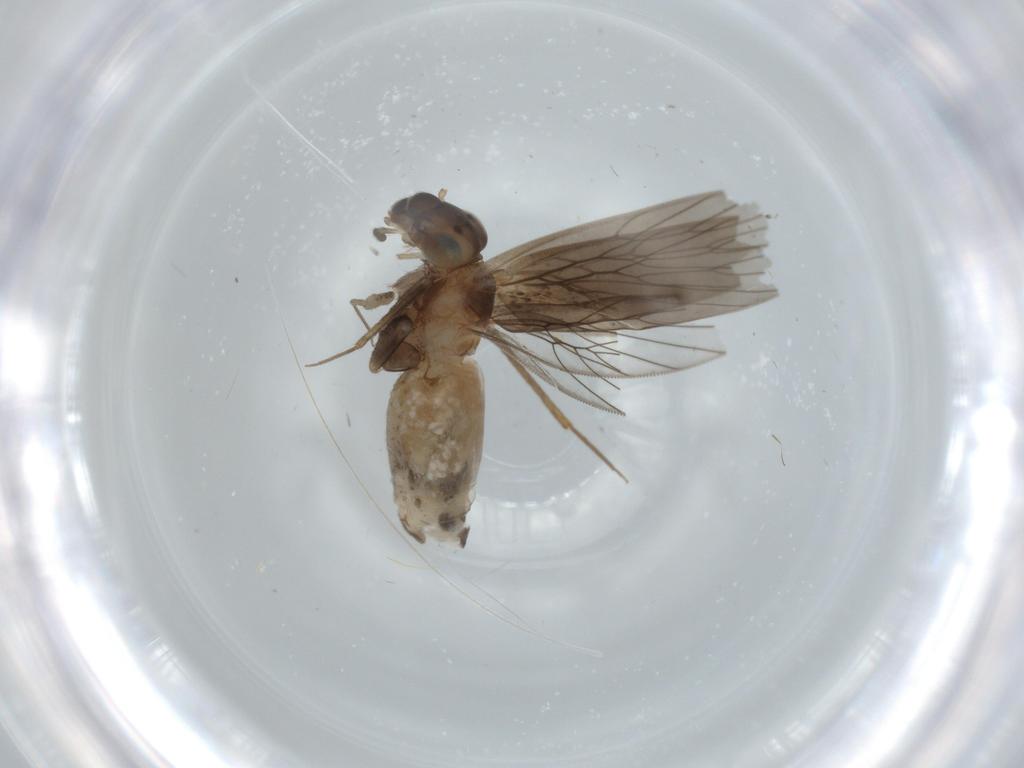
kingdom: Animalia
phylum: Arthropoda
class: Insecta
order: Psocodea
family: Lepidopsocidae
